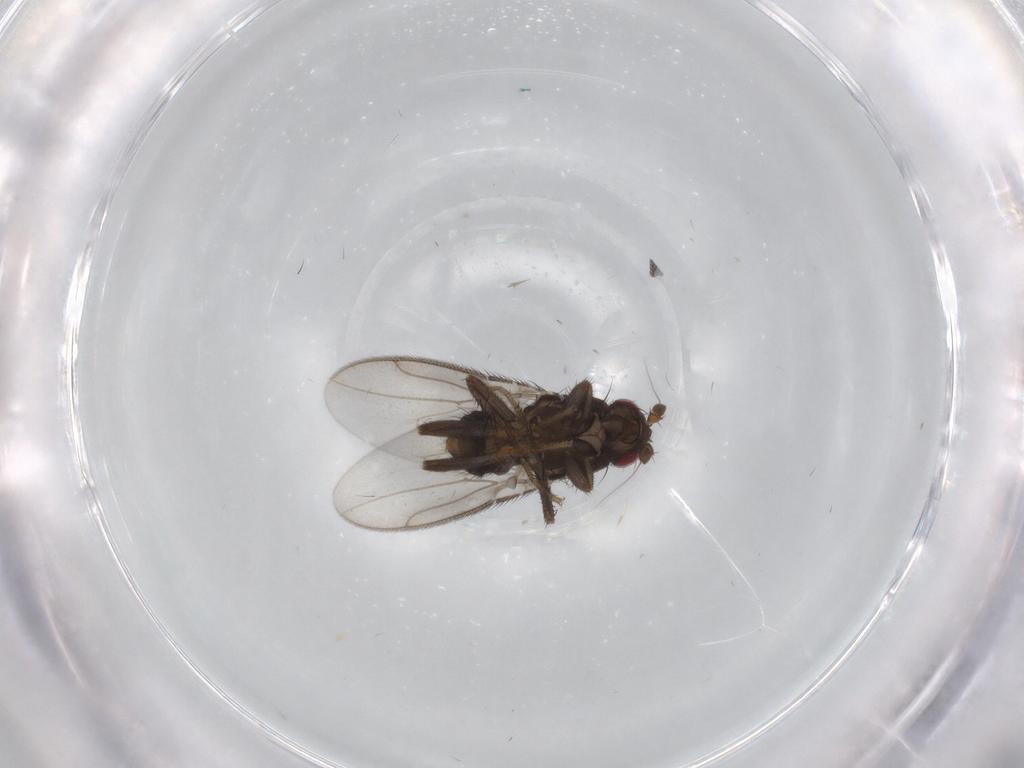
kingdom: Animalia
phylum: Arthropoda
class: Insecta
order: Diptera
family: Sphaeroceridae
